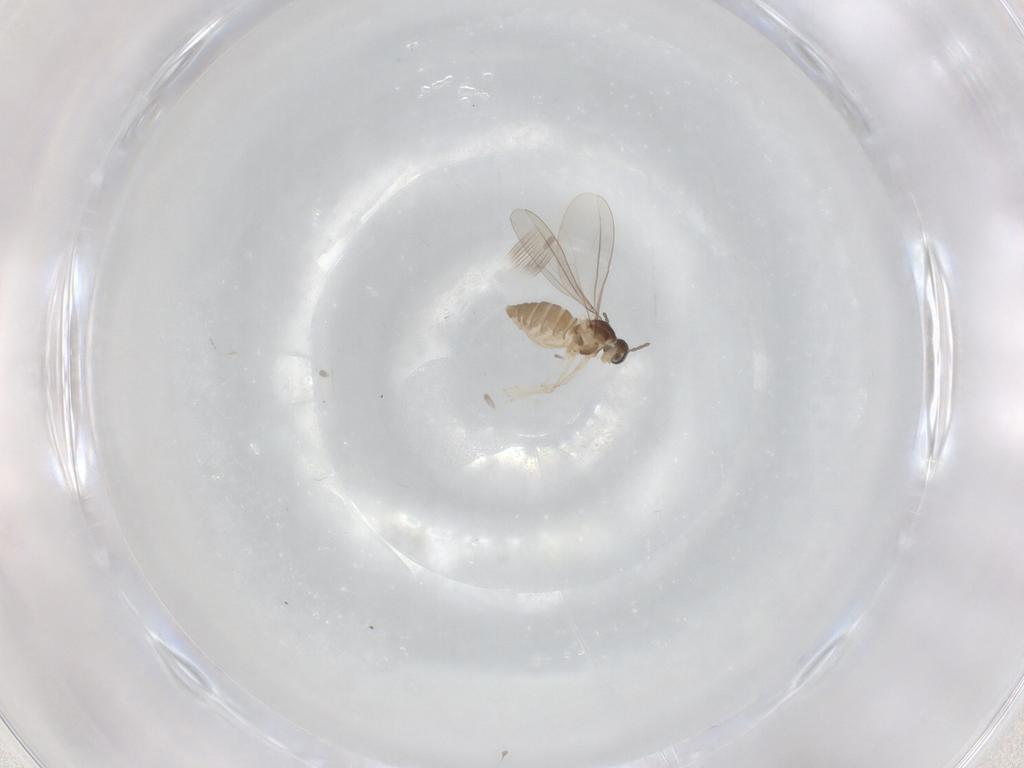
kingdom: Animalia
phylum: Arthropoda
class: Insecta
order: Diptera
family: Cecidomyiidae
